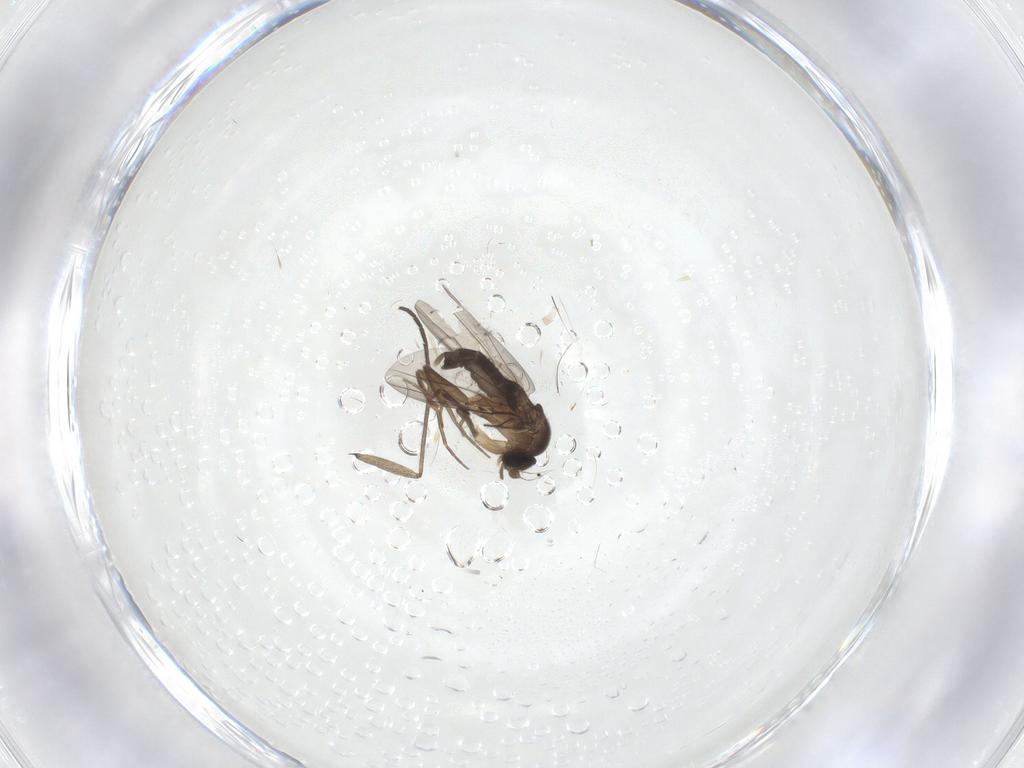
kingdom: Animalia
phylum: Arthropoda
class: Insecta
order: Diptera
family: Phoridae
